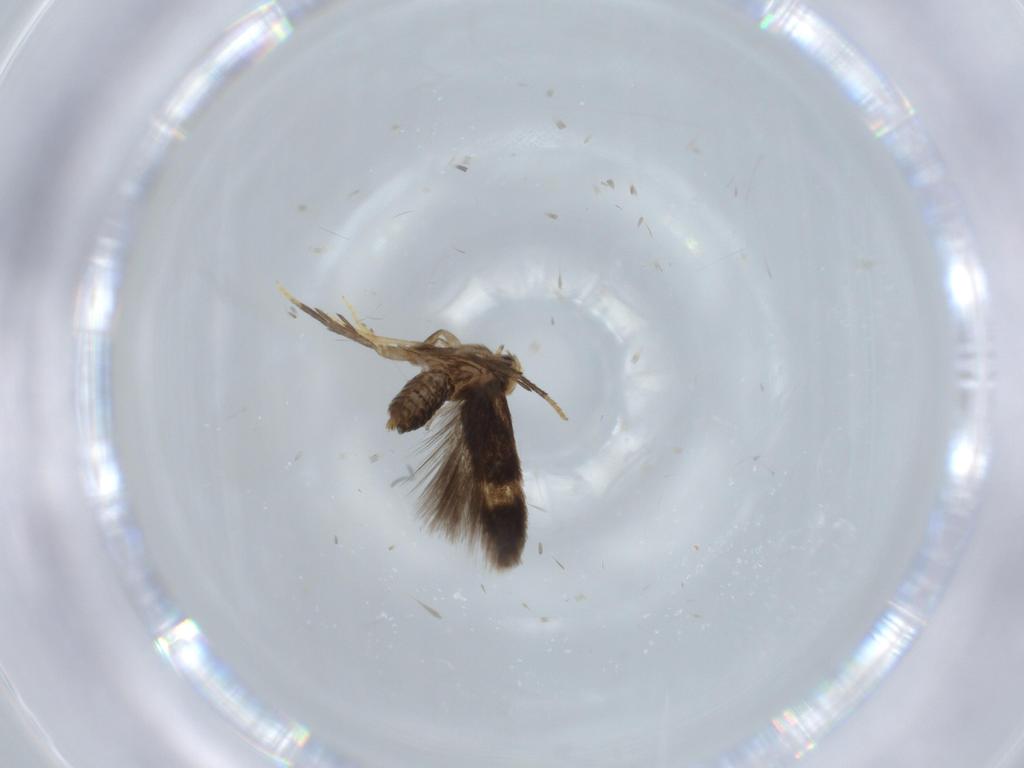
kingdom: Animalia
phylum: Arthropoda
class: Insecta
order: Lepidoptera
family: Nepticulidae
